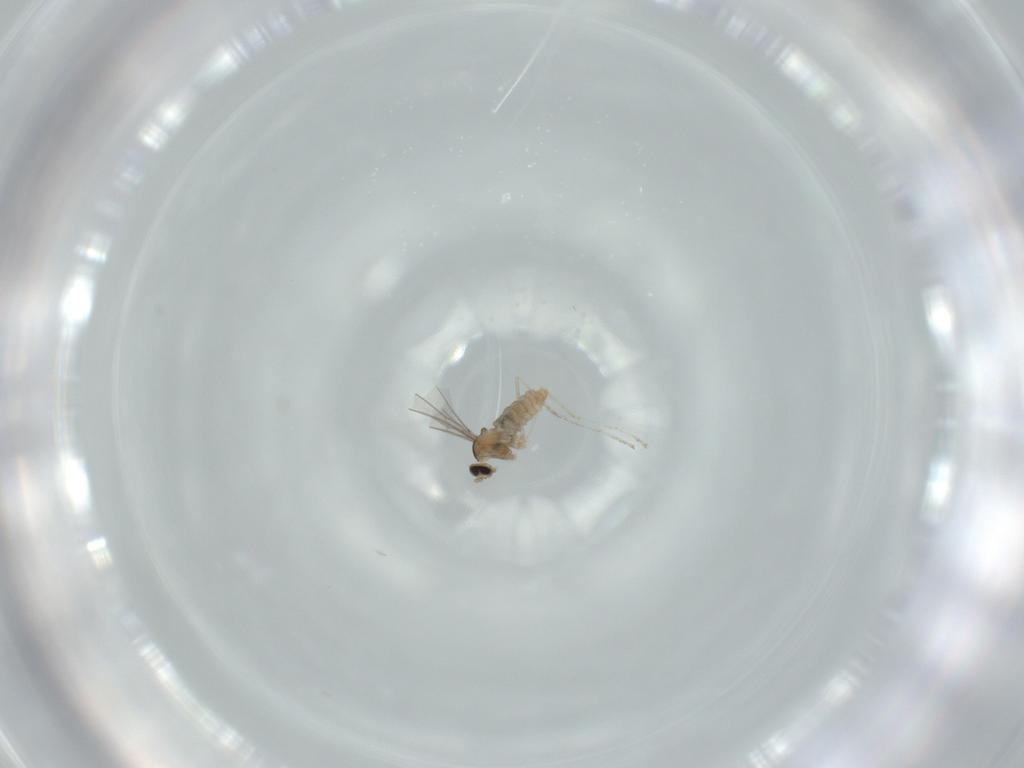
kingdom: Animalia
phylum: Arthropoda
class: Insecta
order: Diptera
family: Cecidomyiidae
